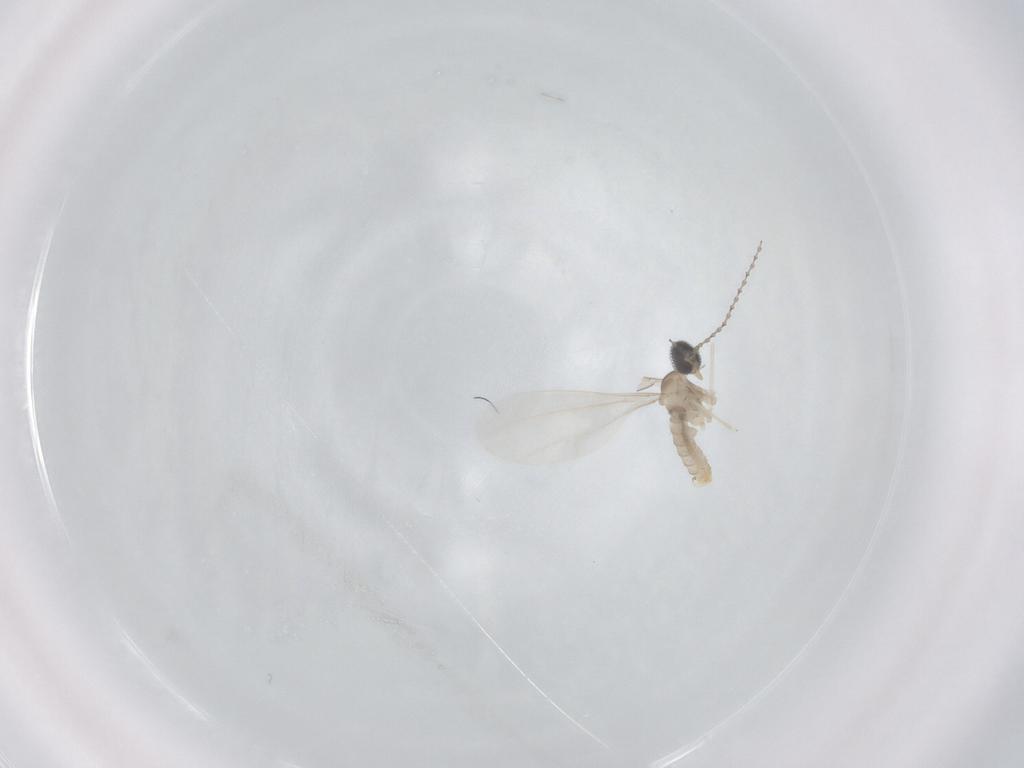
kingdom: Animalia
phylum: Arthropoda
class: Insecta
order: Diptera
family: Cecidomyiidae
